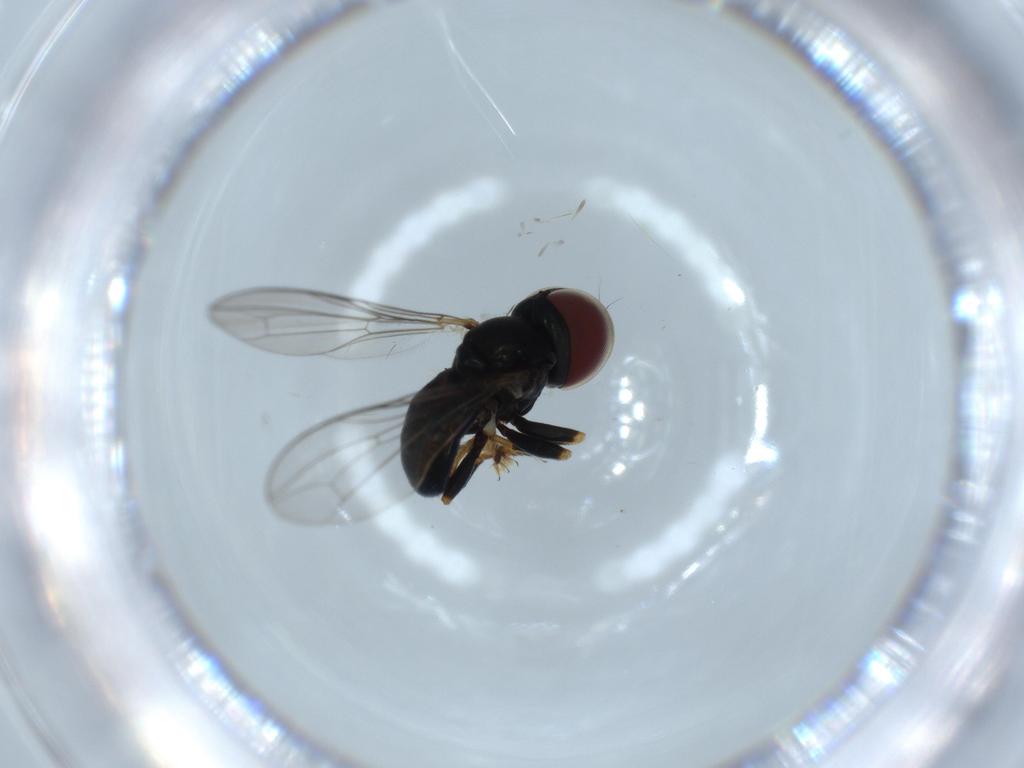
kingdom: Animalia
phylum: Arthropoda
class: Insecta
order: Diptera
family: Pipunculidae
